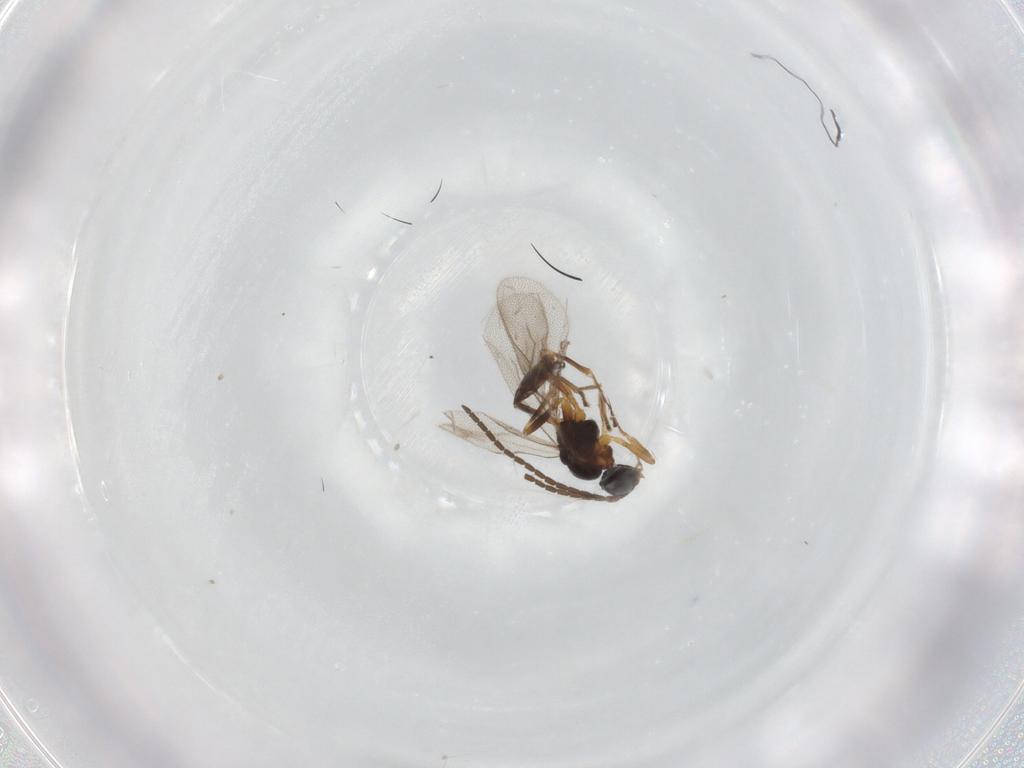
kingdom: Animalia
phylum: Arthropoda
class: Insecta
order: Hymenoptera
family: Braconidae
